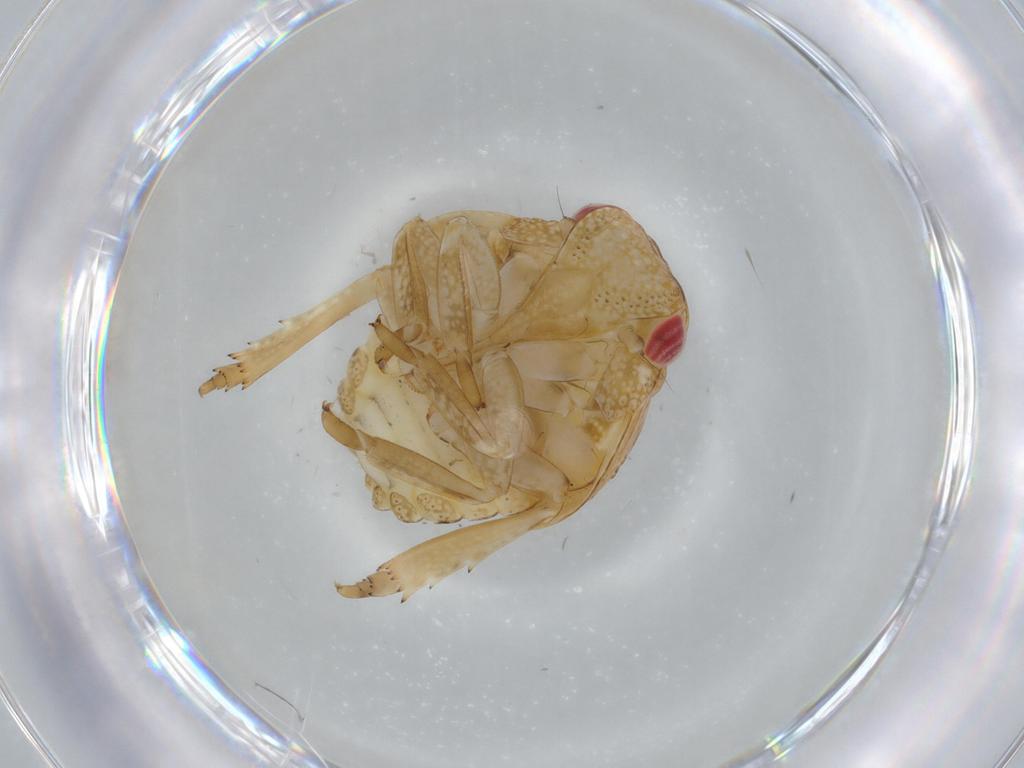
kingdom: Animalia
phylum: Arthropoda
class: Insecta
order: Hemiptera
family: Acanaloniidae
